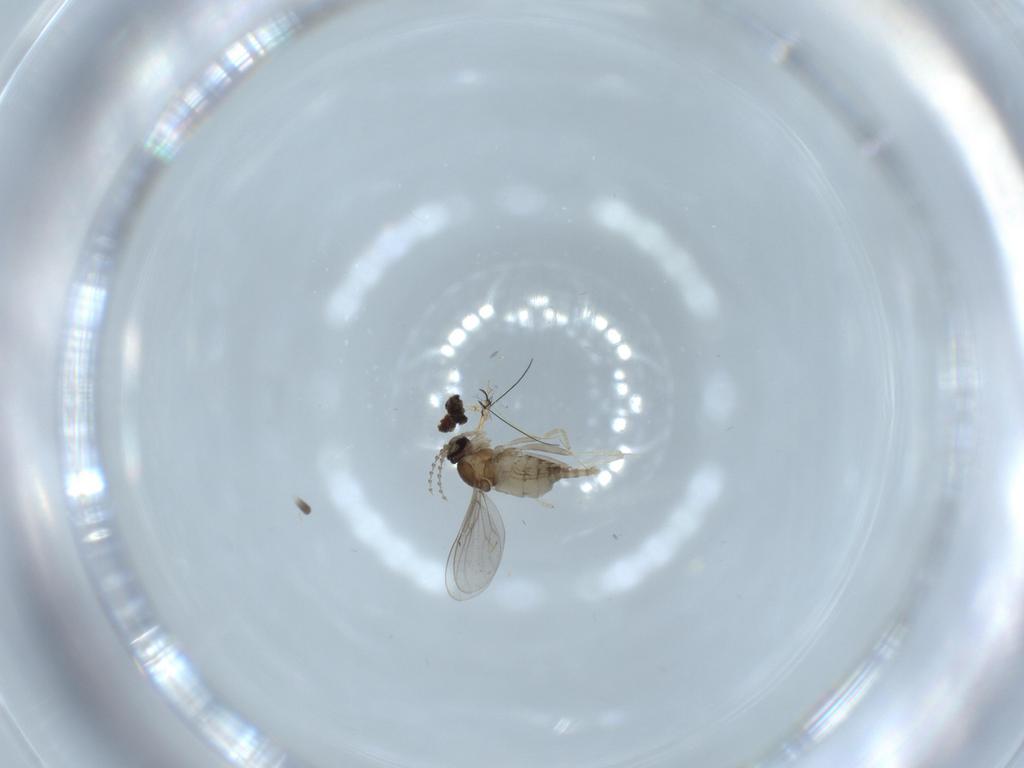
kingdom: Animalia
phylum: Arthropoda
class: Insecta
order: Diptera
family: Cecidomyiidae
